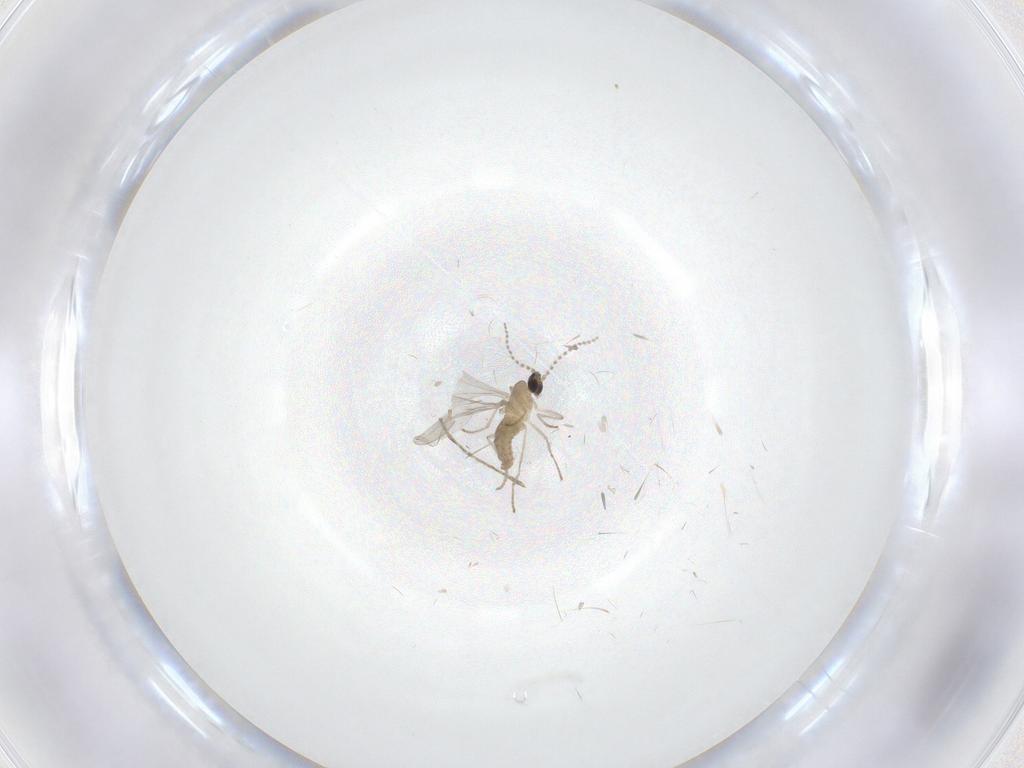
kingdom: Animalia
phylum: Arthropoda
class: Insecta
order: Diptera
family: Cecidomyiidae
